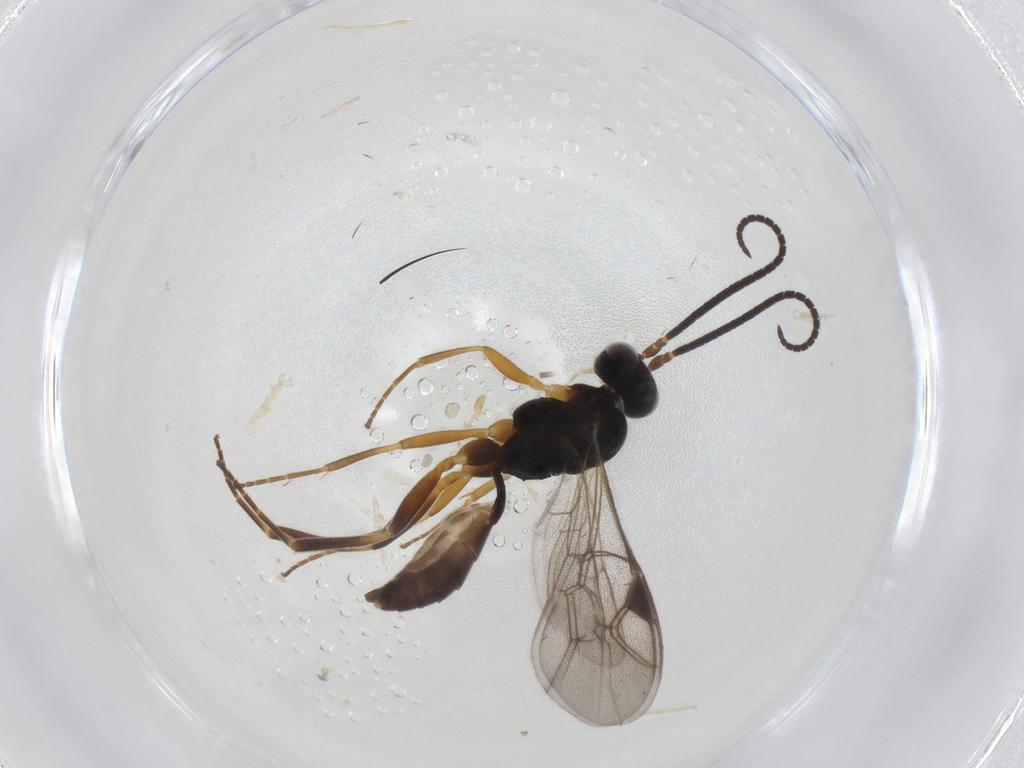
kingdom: Animalia
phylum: Arthropoda
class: Insecta
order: Hymenoptera
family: Ichneumonidae
